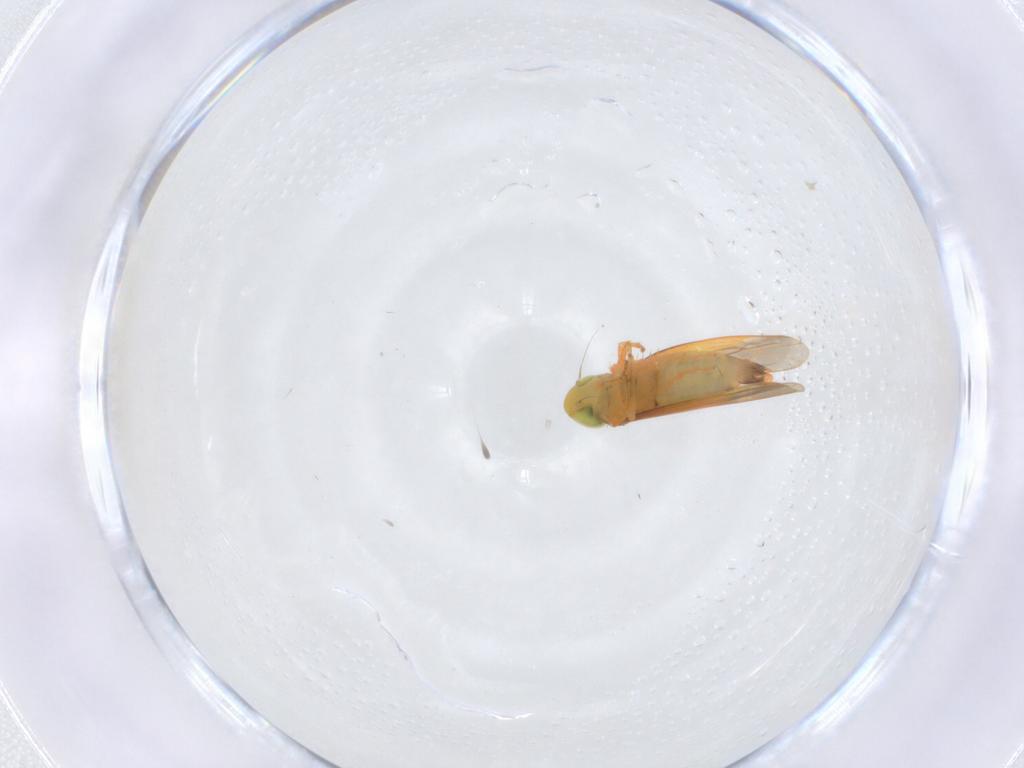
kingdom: Animalia
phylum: Arthropoda
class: Insecta
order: Hemiptera
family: Cicadellidae
